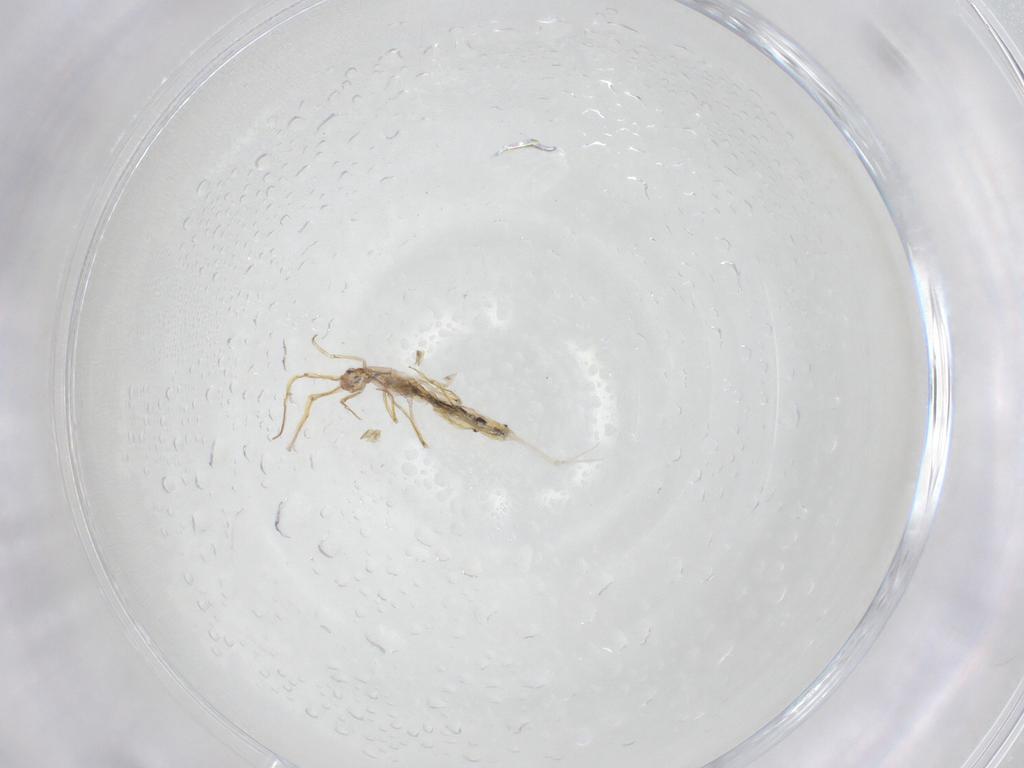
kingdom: Animalia
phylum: Arthropoda
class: Collembola
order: Entomobryomorpha
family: Entomobryidae
